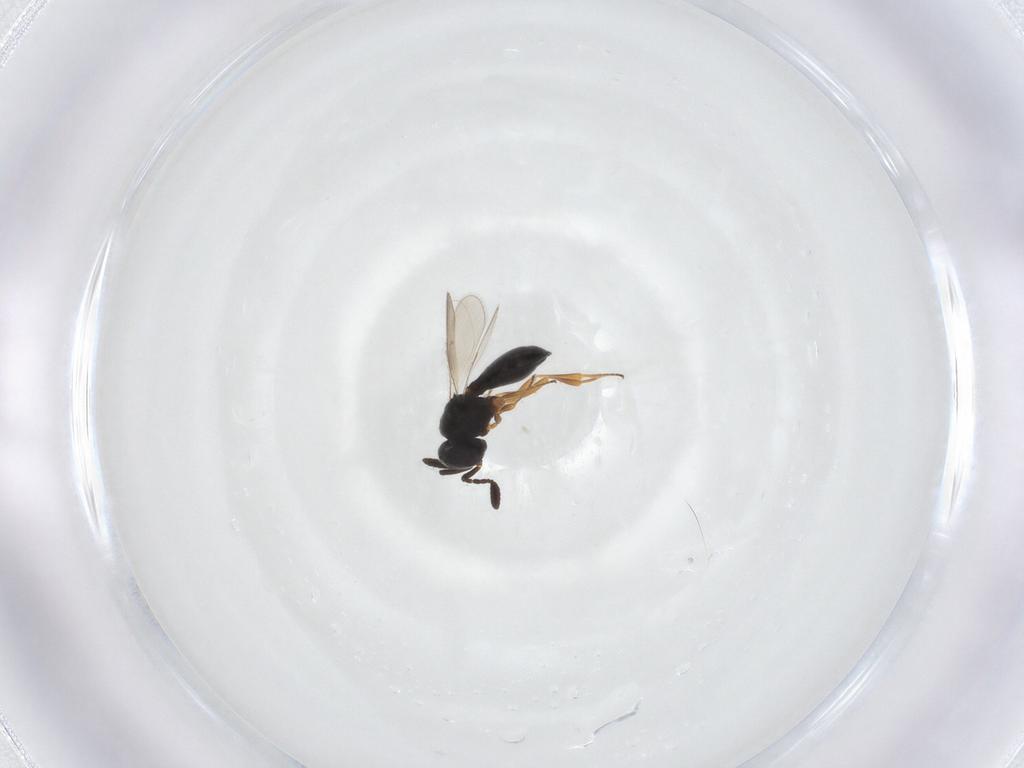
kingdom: Animalia
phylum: Arthropoda
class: Insecta
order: Hymenoptera
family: Scelionidae
